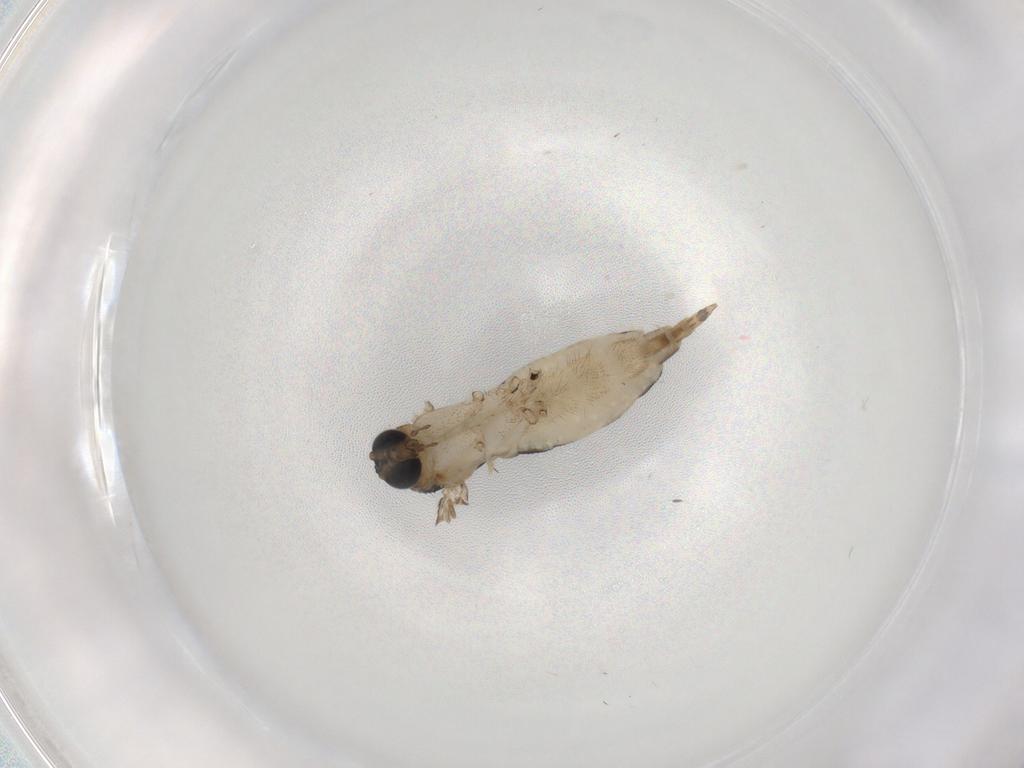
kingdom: Animalia
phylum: Arthropoda
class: Insecta
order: Diptera
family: Sciaridae
